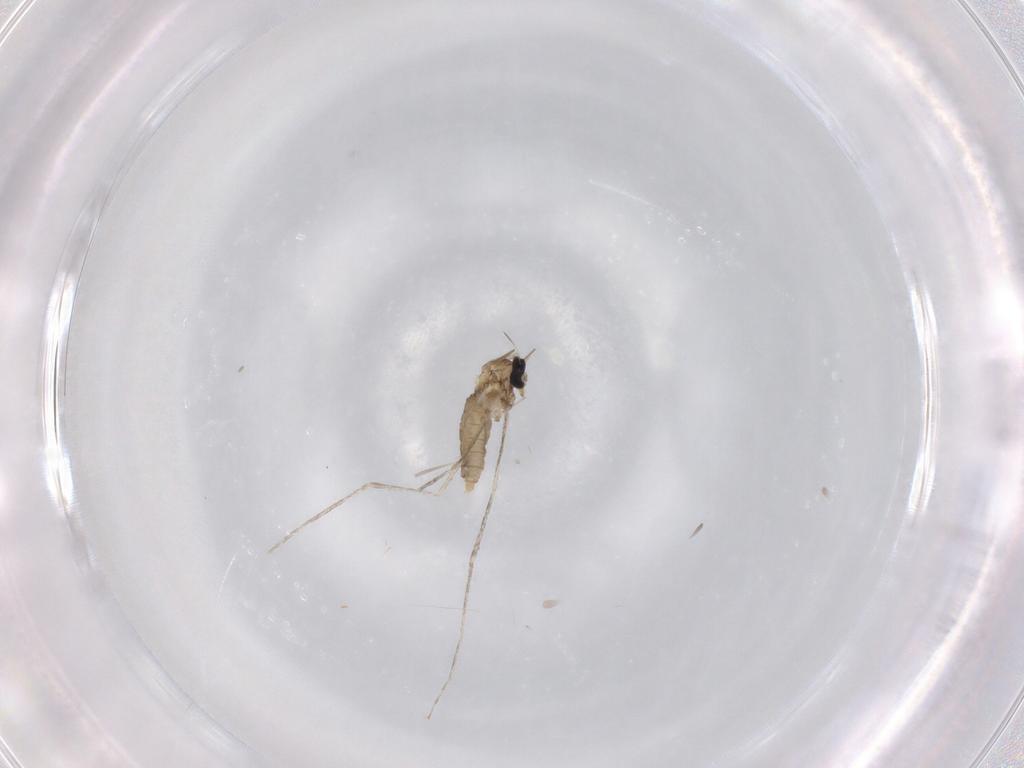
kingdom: Animalia
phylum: Arthropoda
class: Insecta
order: Diptera
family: Cecidomyiidae
